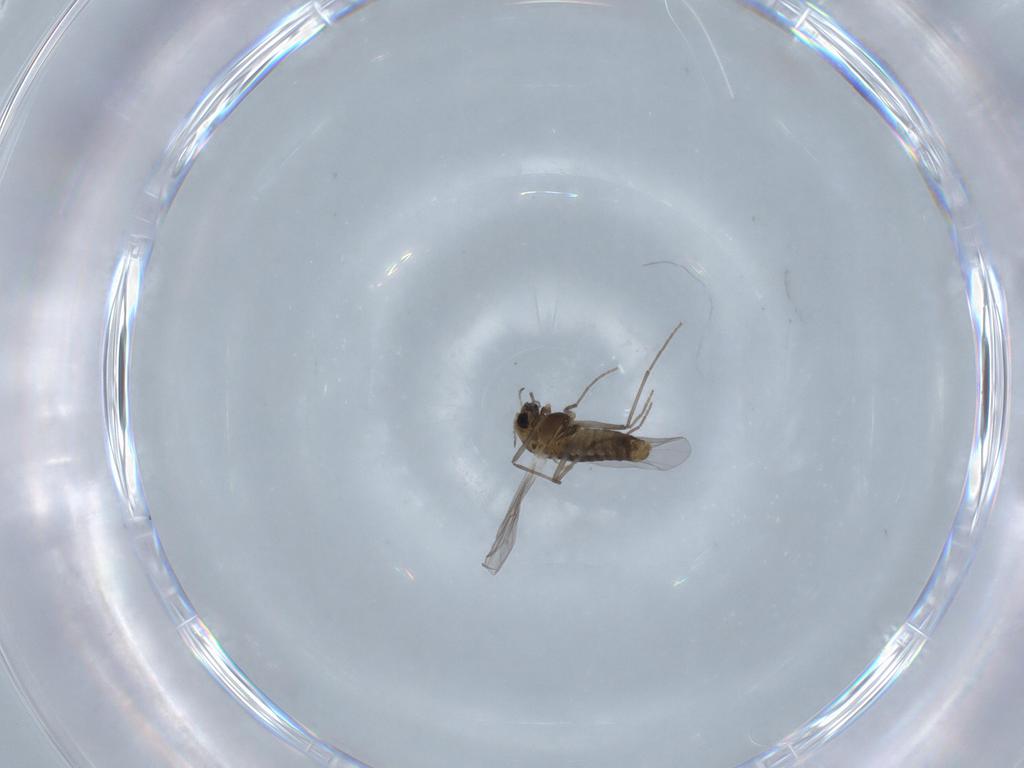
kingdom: Animalia
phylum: Arthropoda
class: Insecta
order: Diptera
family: Chironomidae
